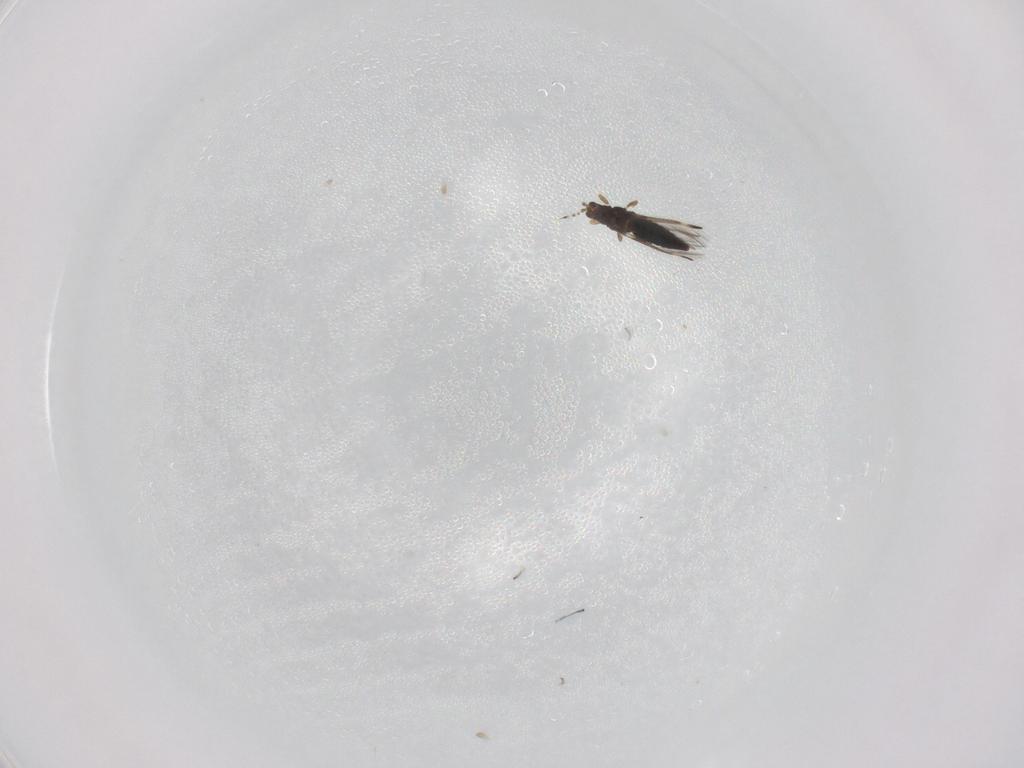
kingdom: Animalia
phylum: Arthropoda
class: Insecta
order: Thysanoptera
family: Thripidae
